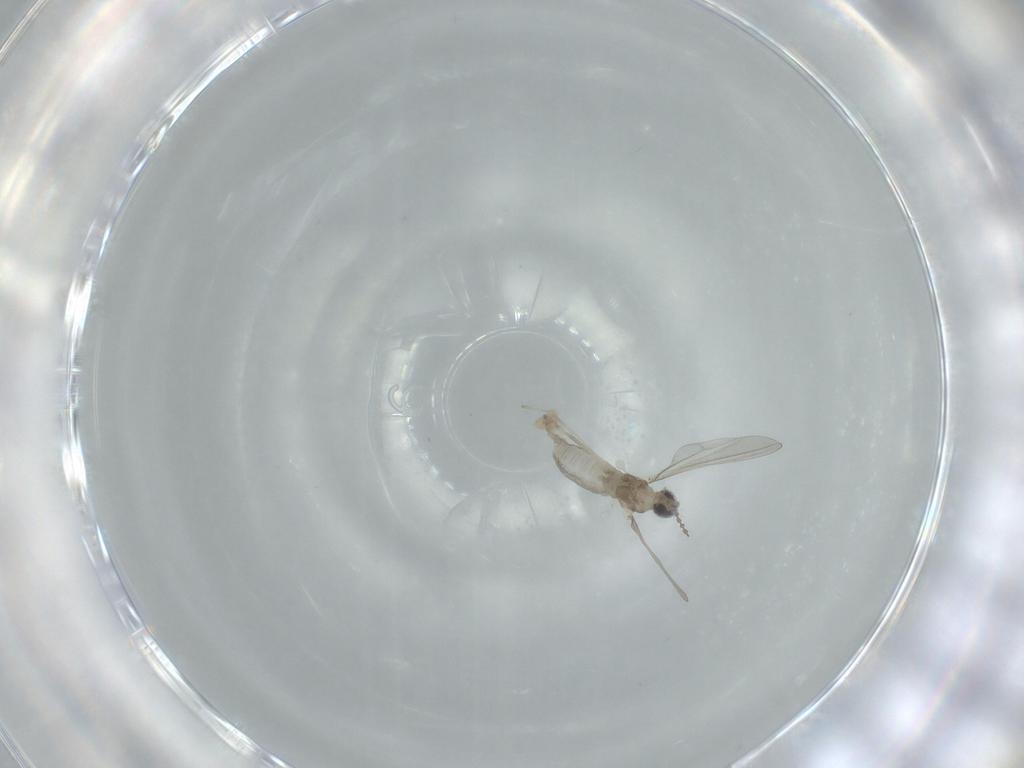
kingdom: Animalia
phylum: Arthropoda
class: Insecta
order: Diptera
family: Cecidomyiidae
